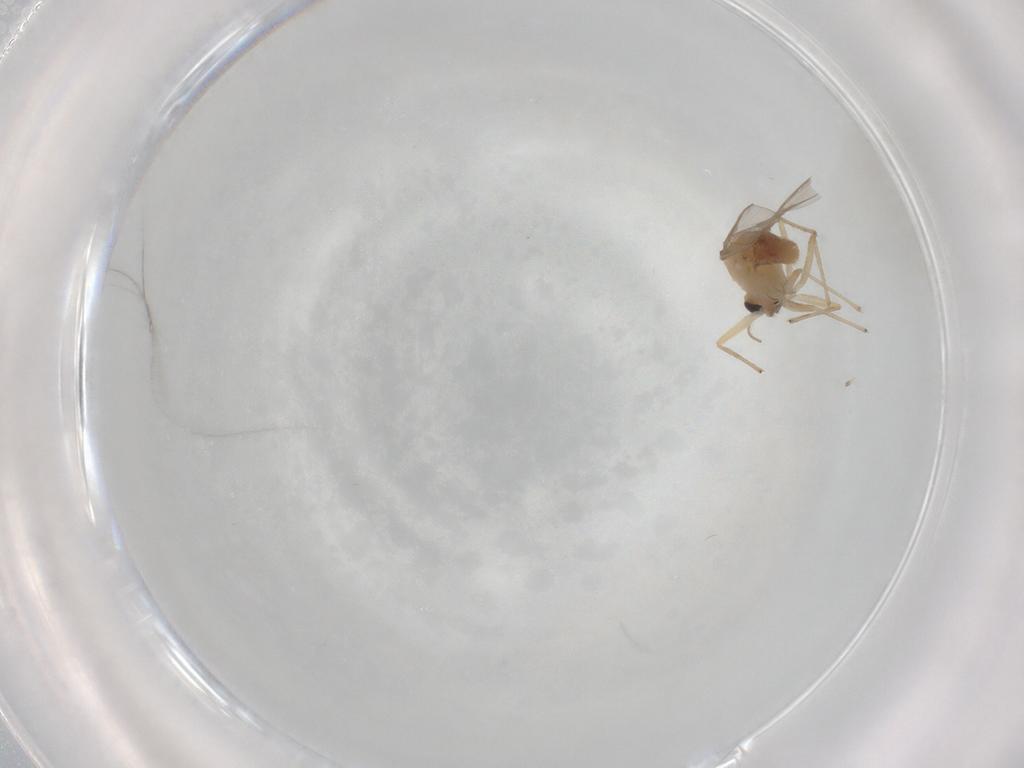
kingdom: Animalia
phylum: Arthropoda
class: Insecta
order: Diptera
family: Chironomidae
